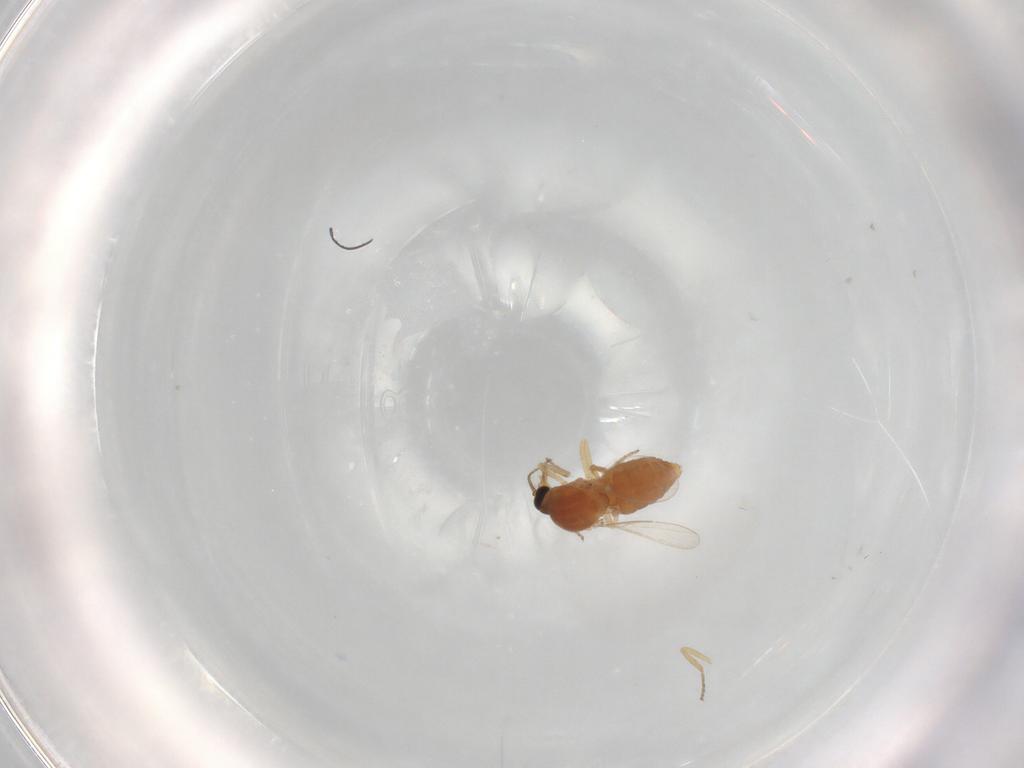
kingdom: Animalia
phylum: Arthropoda
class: Insecta
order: Diptera
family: Ceratopogonidae
